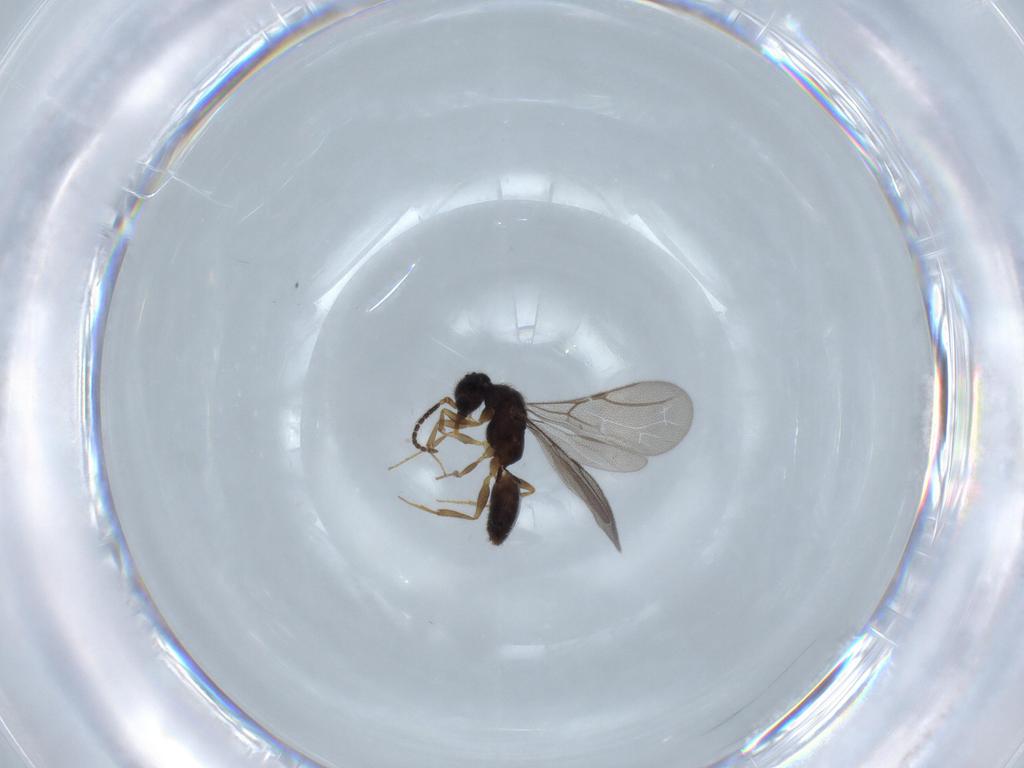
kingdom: Animalia
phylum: Arthropoda
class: Insecta
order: Hymenoptera
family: Bethylidae
